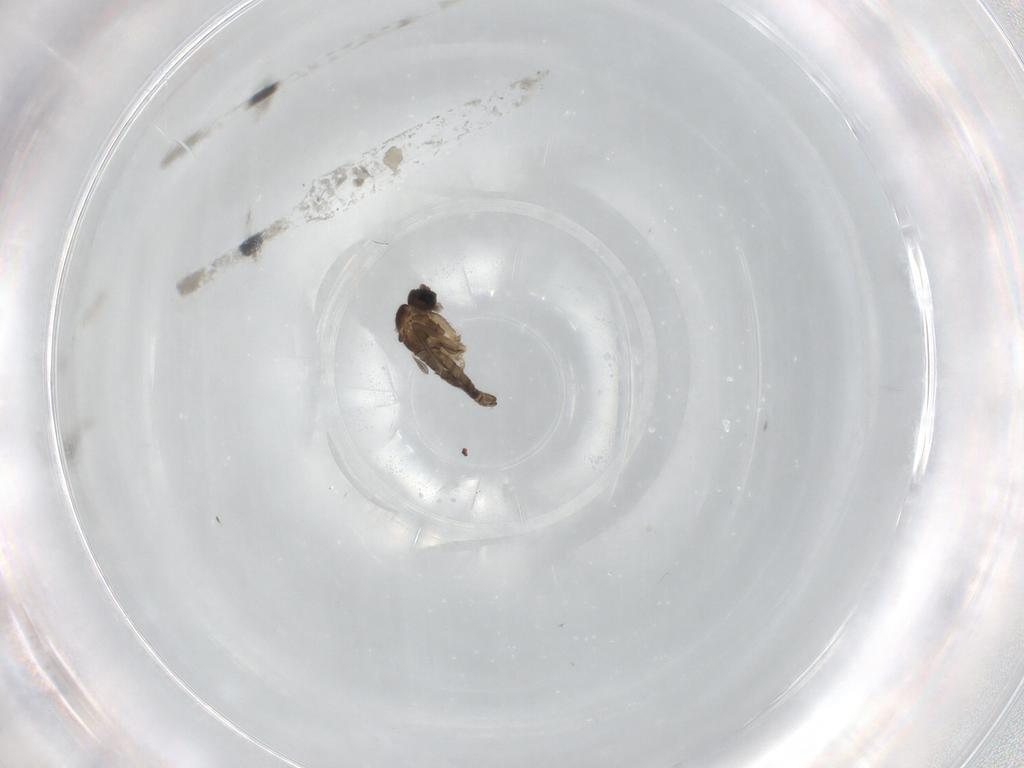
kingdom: Animalia
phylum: Arthropoda
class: Insecta
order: Diptera
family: Sciaridae
